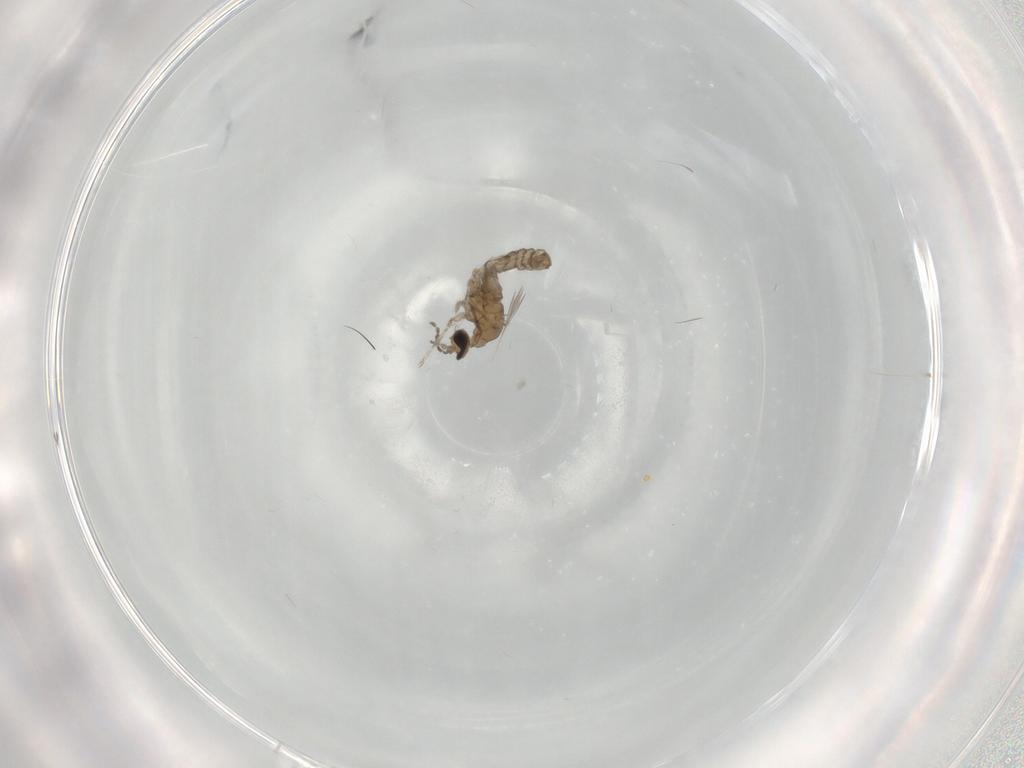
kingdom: Animalia
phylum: Arthropoda
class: Insecta
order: Diptera
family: Cecidomyiidae
